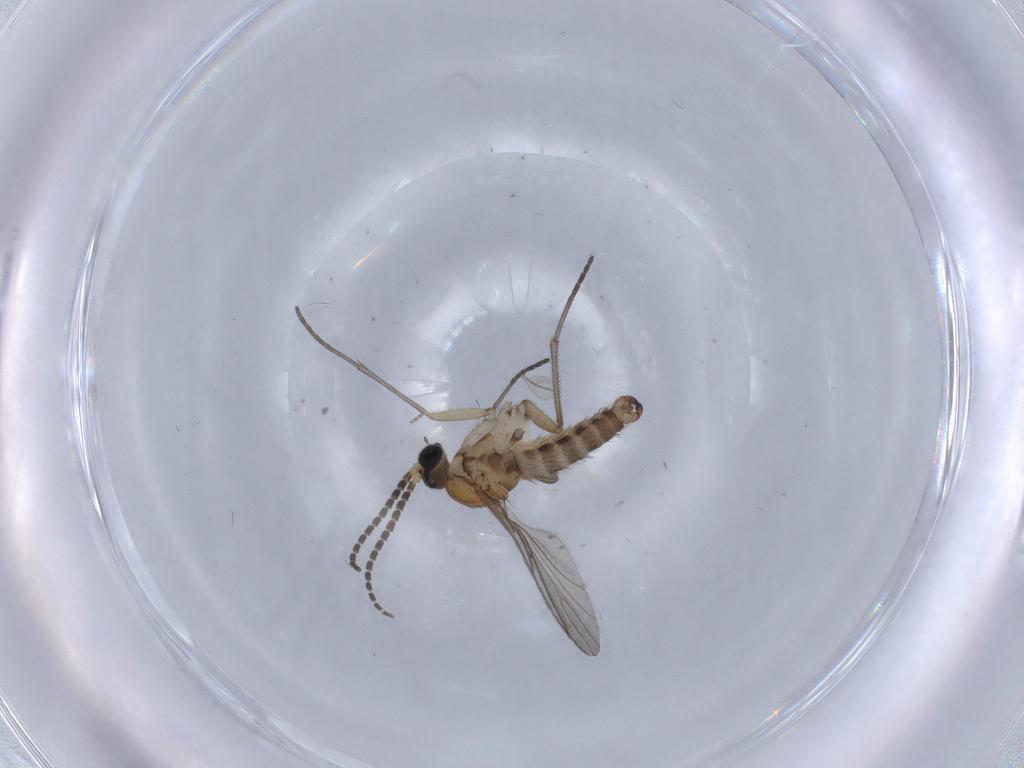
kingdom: Animalia
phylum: Arthropoda
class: Insecta
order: Diptera
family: Sciaridae
